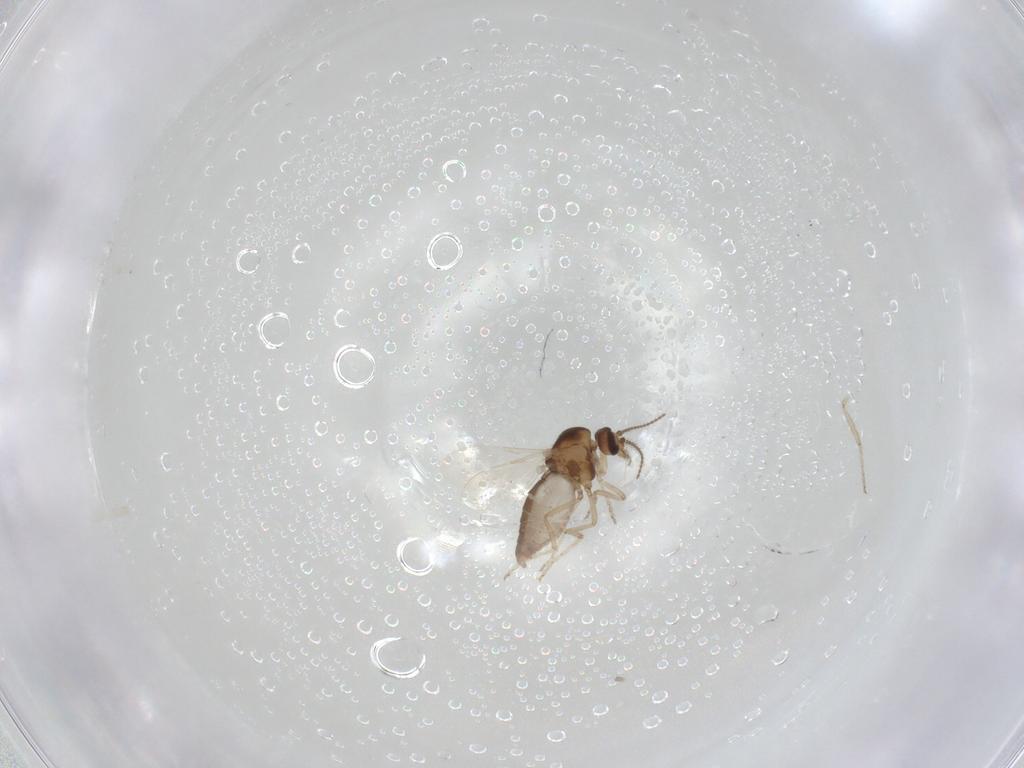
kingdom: Animalia
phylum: Arthropoda
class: Insecta
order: Diptera
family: Ceratopogonidae
